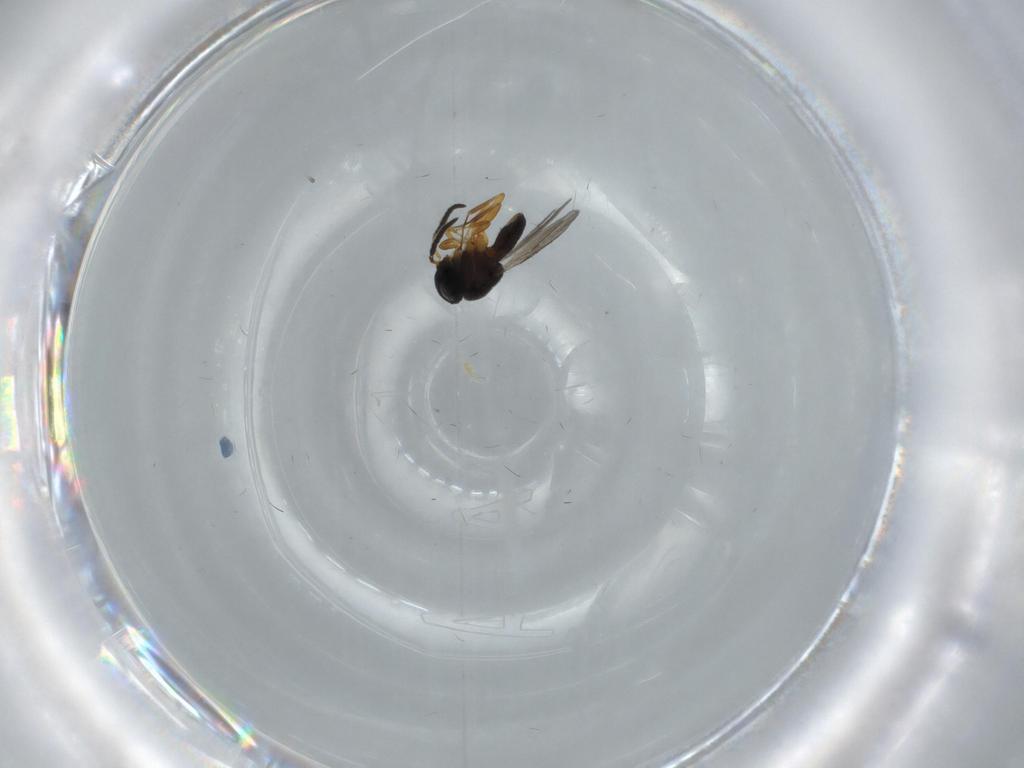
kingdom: Animalia
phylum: Arthropoda
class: Insecta
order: Hymenoptera
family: Scelionidae
